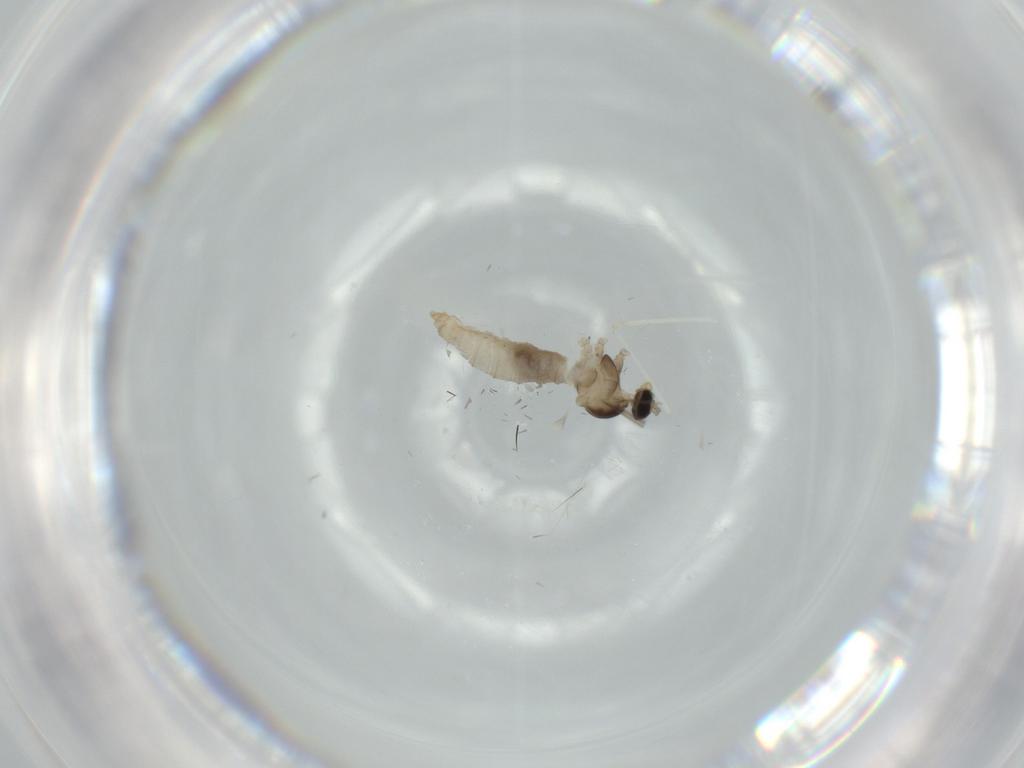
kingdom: Animalia
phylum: Arthropoda
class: Insecta
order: Diptera
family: Cecidomyiidae
